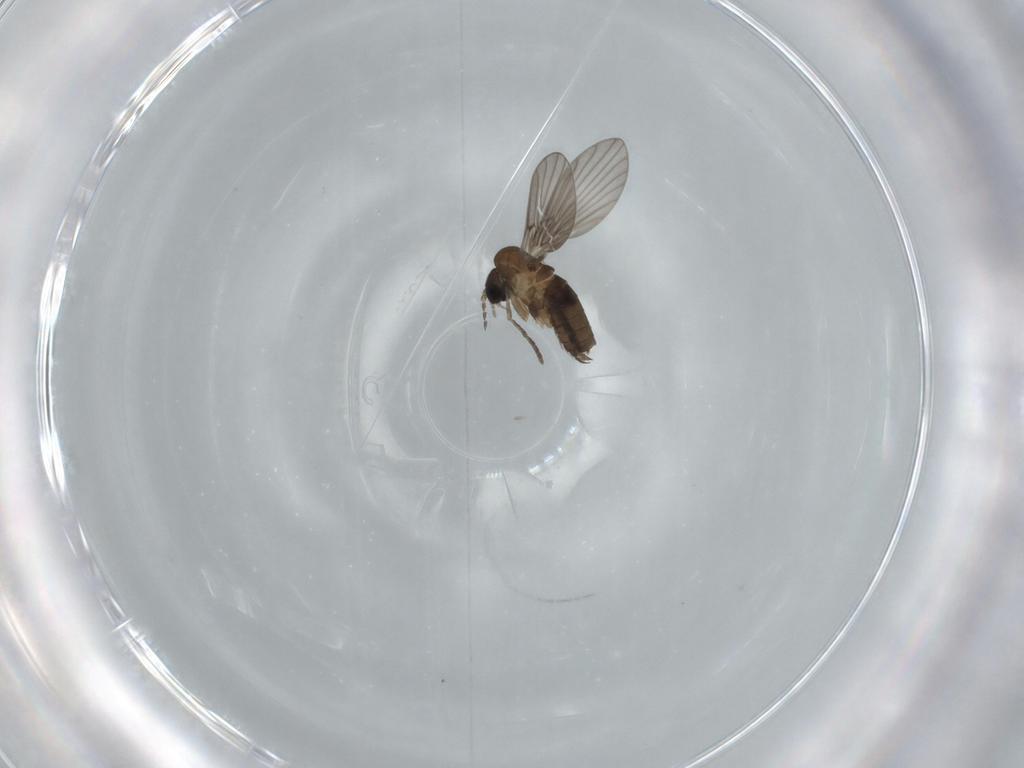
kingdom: Animalia
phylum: Arthropoda
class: Insecta
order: Diptera
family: Psychodidae
